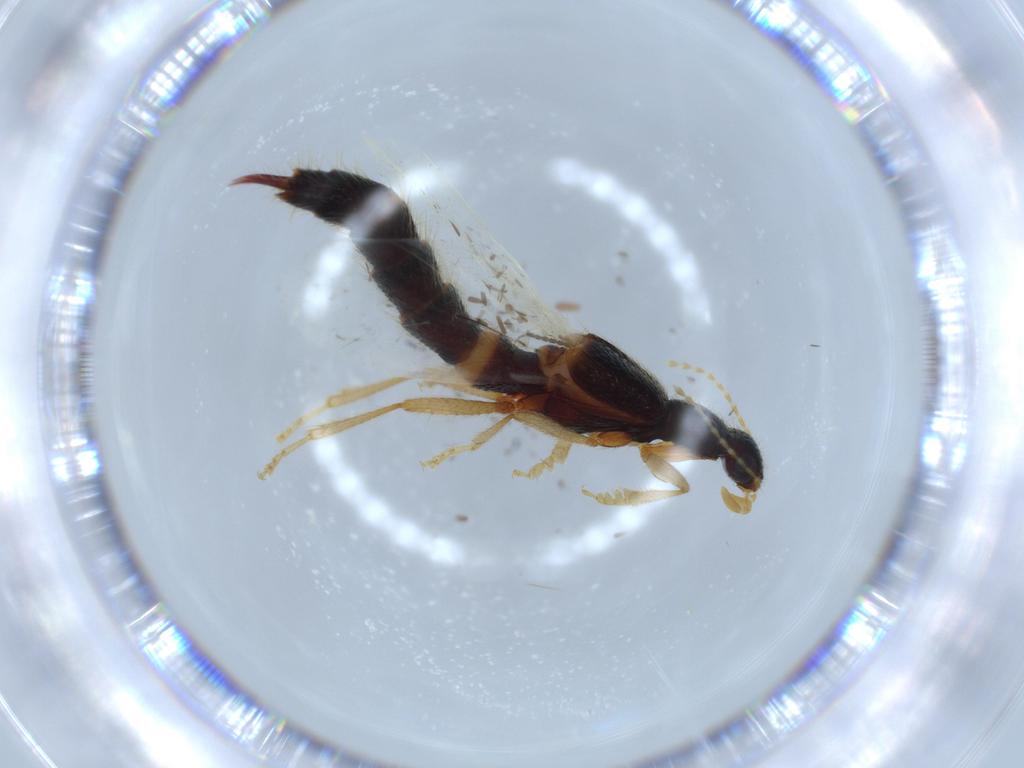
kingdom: Animalia
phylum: Arthropoda
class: Insecta
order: Coleoptera
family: Staphylinidae
